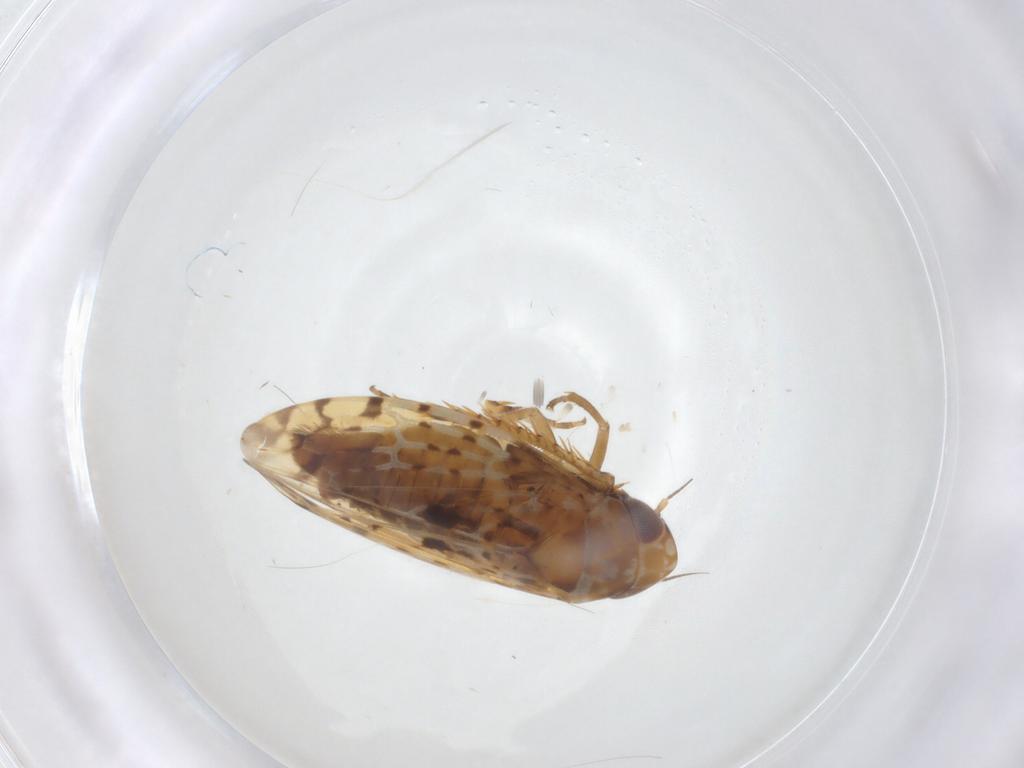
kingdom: Animalia
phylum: Arthropoda
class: Insecta
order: Hemiptera
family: Cicadellidae
